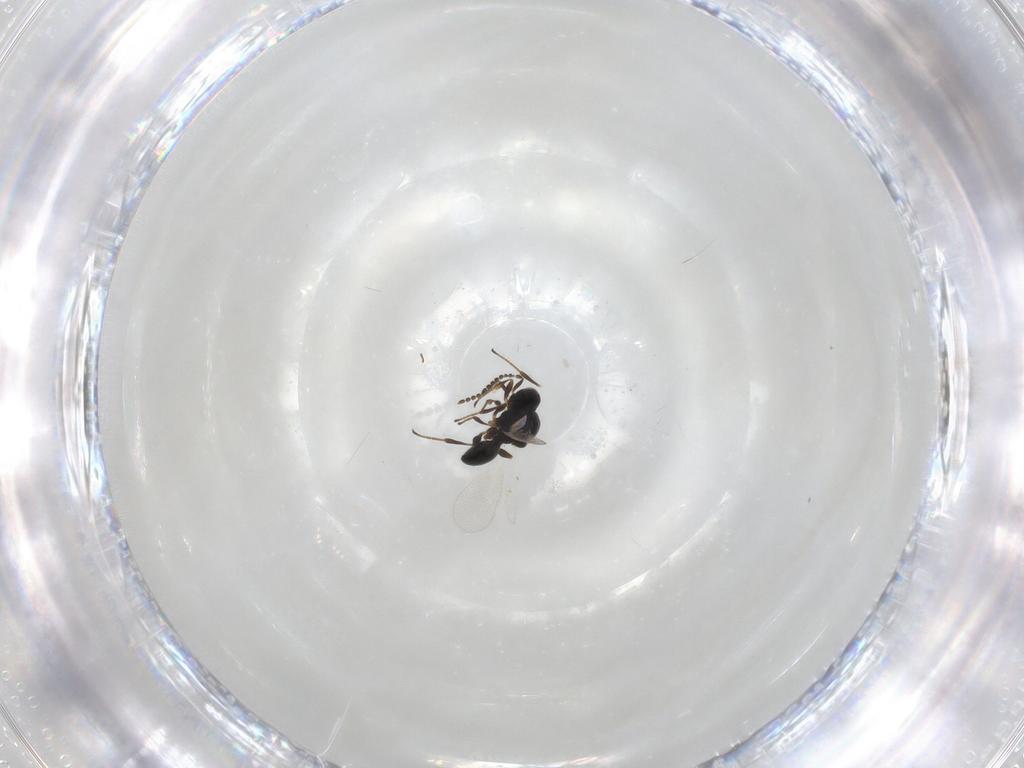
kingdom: Animalia
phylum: Arthropoda
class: Insecta
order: Hymenoptera
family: Platygastridae
